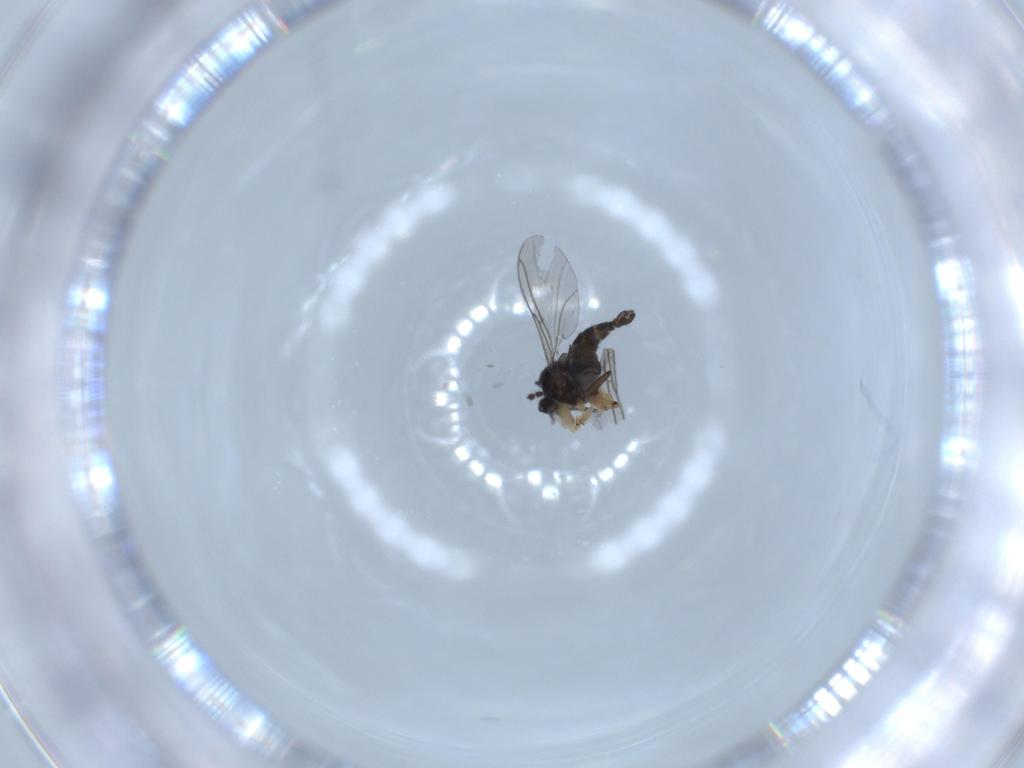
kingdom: Animalia
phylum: Arthropoda
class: Insecta
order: Diptera
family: Sciaridae
